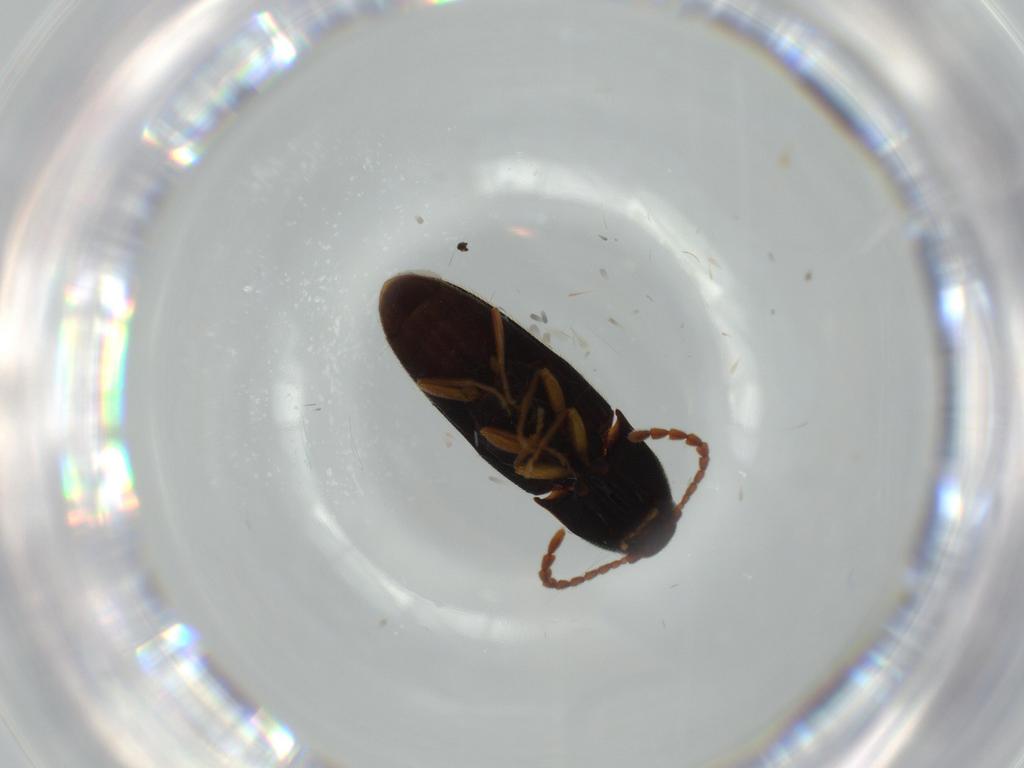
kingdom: Animalia
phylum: Arthropoda
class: Insecta
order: Coleoptera
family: Elateridae
